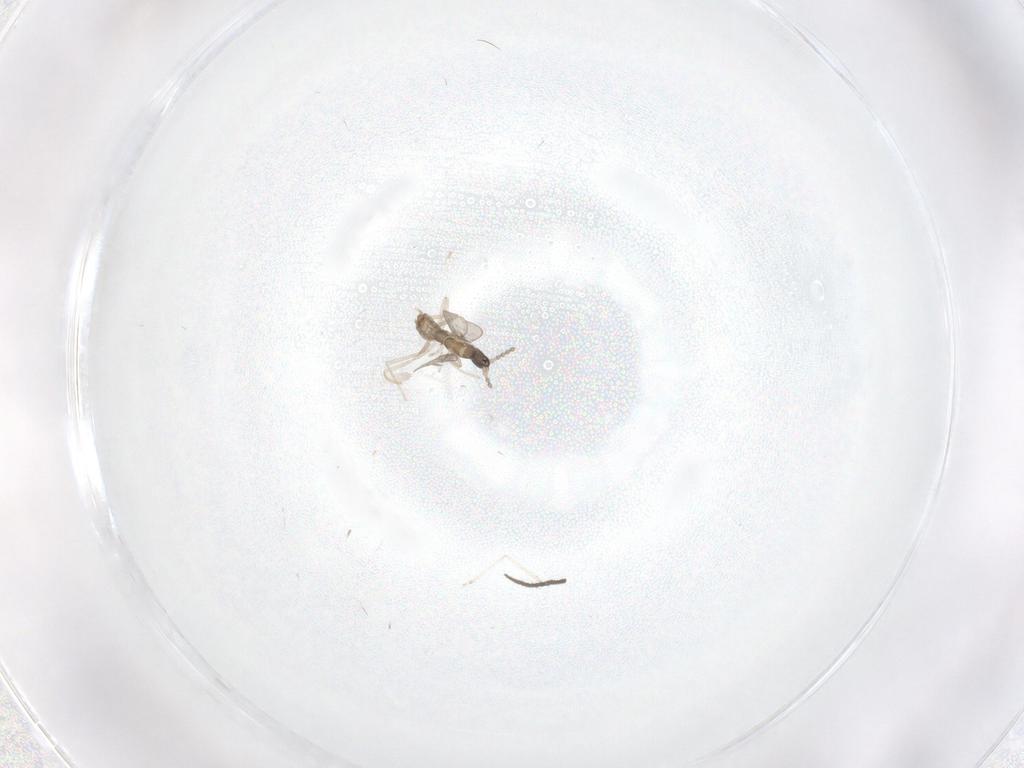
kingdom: Animalia
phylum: Arthropoda
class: Insecta
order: Diptera
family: Sciaridae
